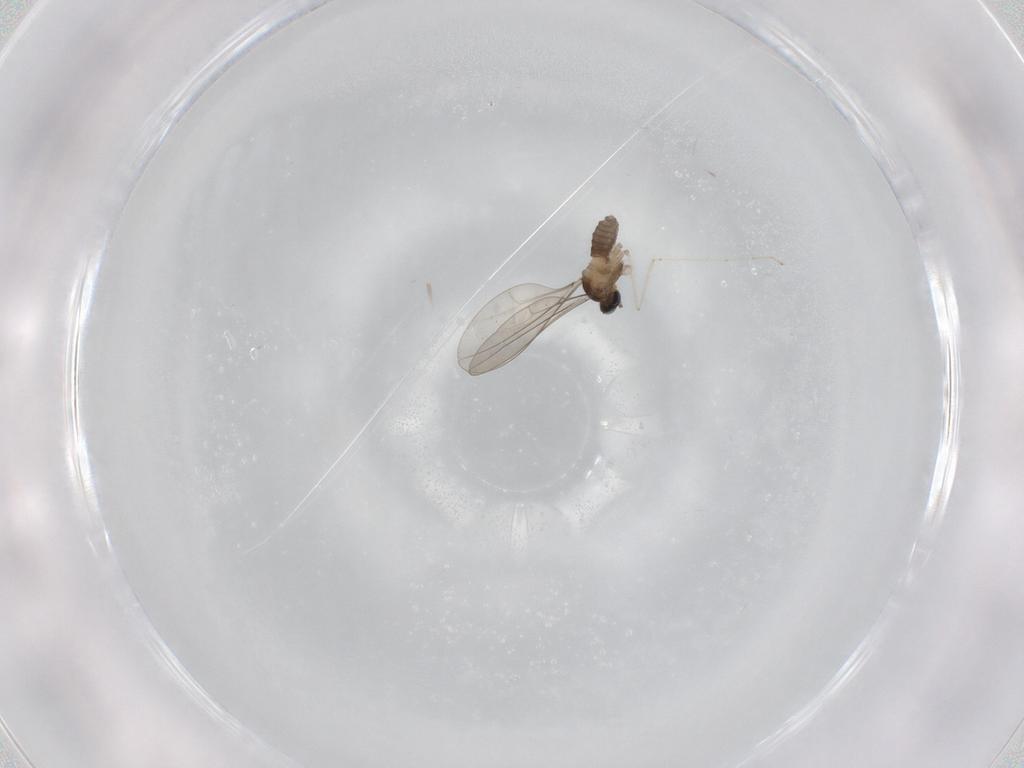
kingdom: Animalia
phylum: Arthropoda
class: Insecta
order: Diptera
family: Cecidomyiidae
